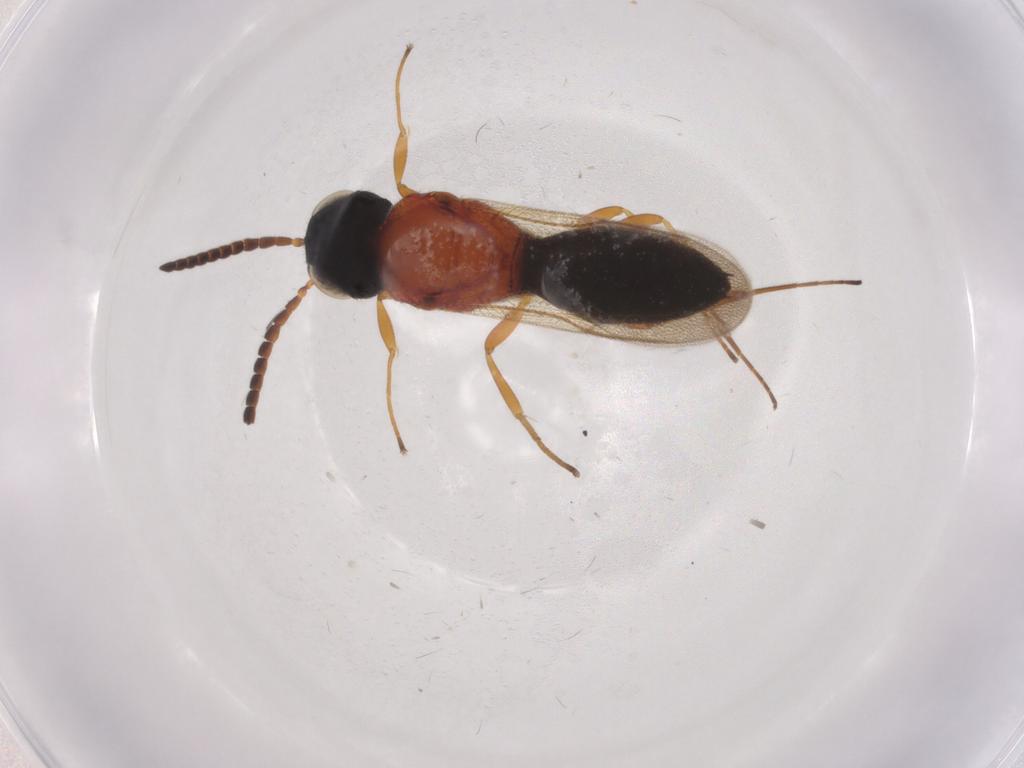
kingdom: Animalia
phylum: Arthropoda
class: Insecta
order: Hymenoptera
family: Scelionidae
